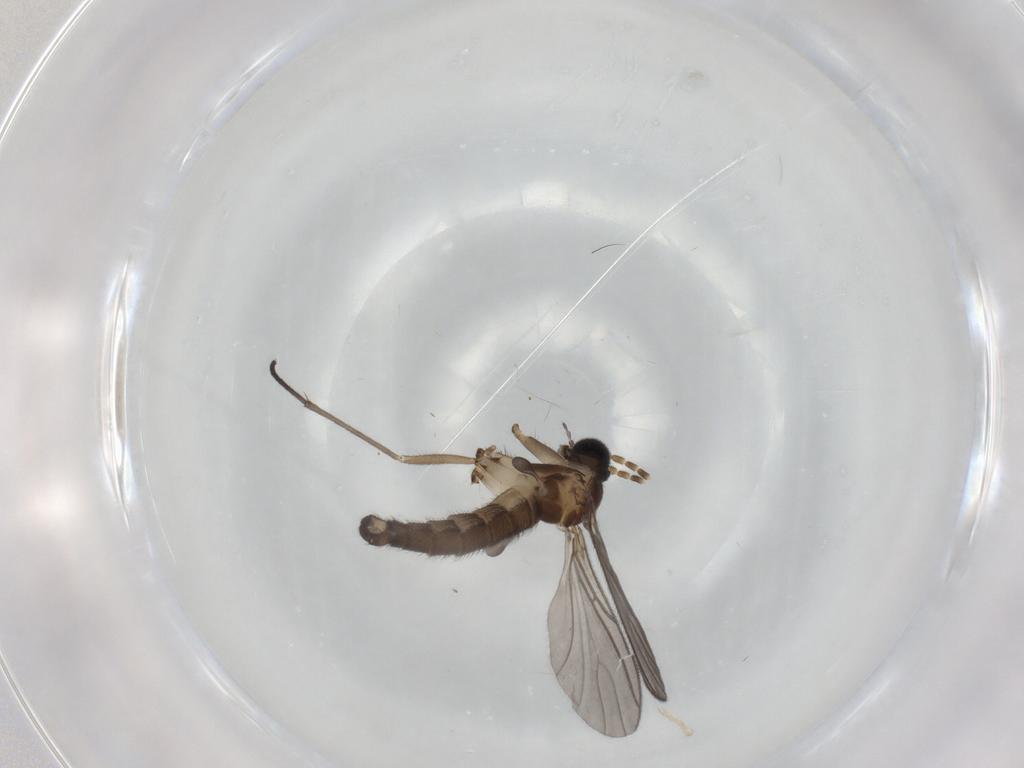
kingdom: Animalia
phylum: Arthropoda
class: Insecta
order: Diptera
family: Sciaridae
